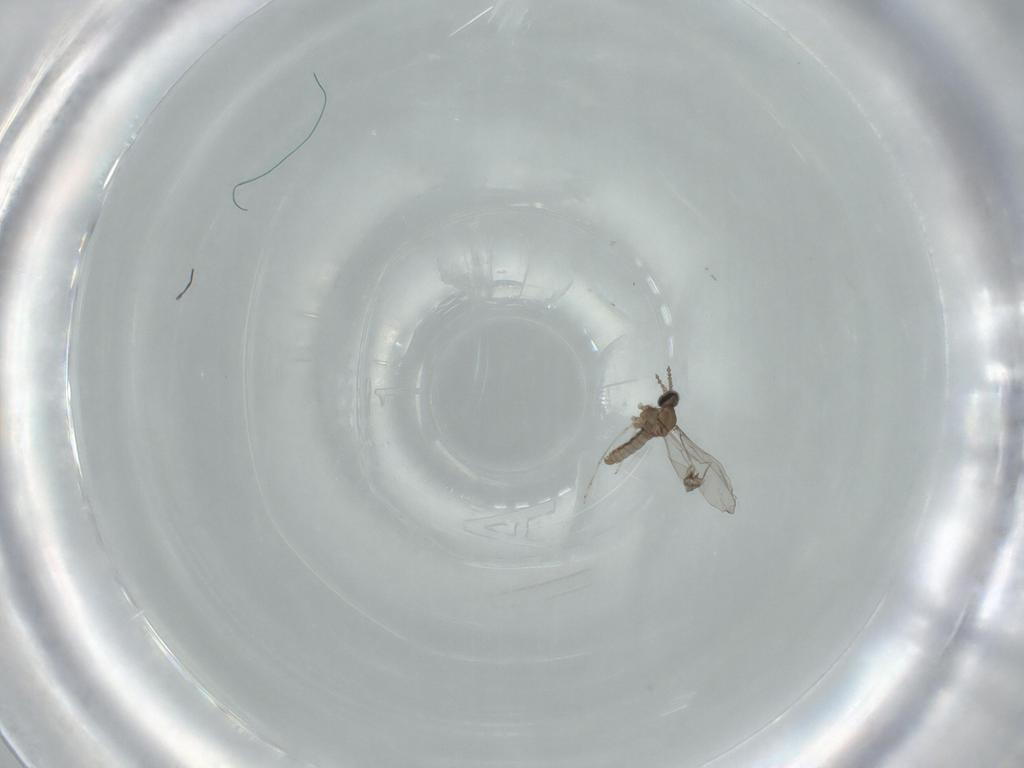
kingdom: Animalia
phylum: Arthropoda
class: Insecta
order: Diptera
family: Cecidomyiidae
